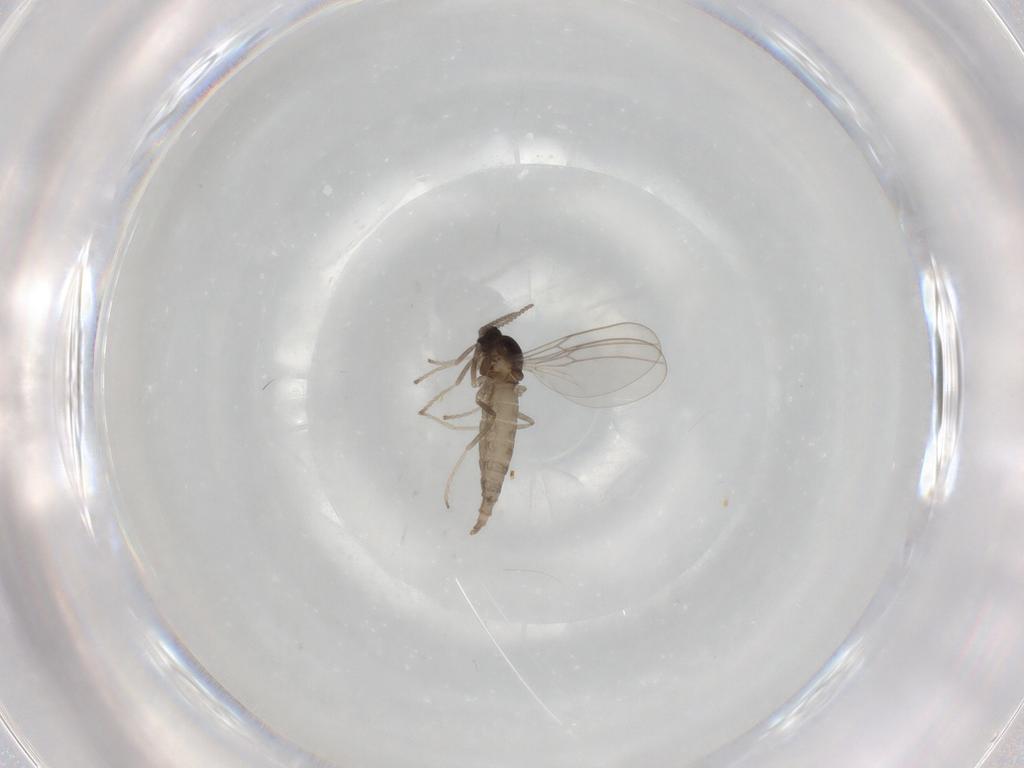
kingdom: Animalia
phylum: Arthropoda
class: Insecta
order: Diptera
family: Cecidomyiidae
